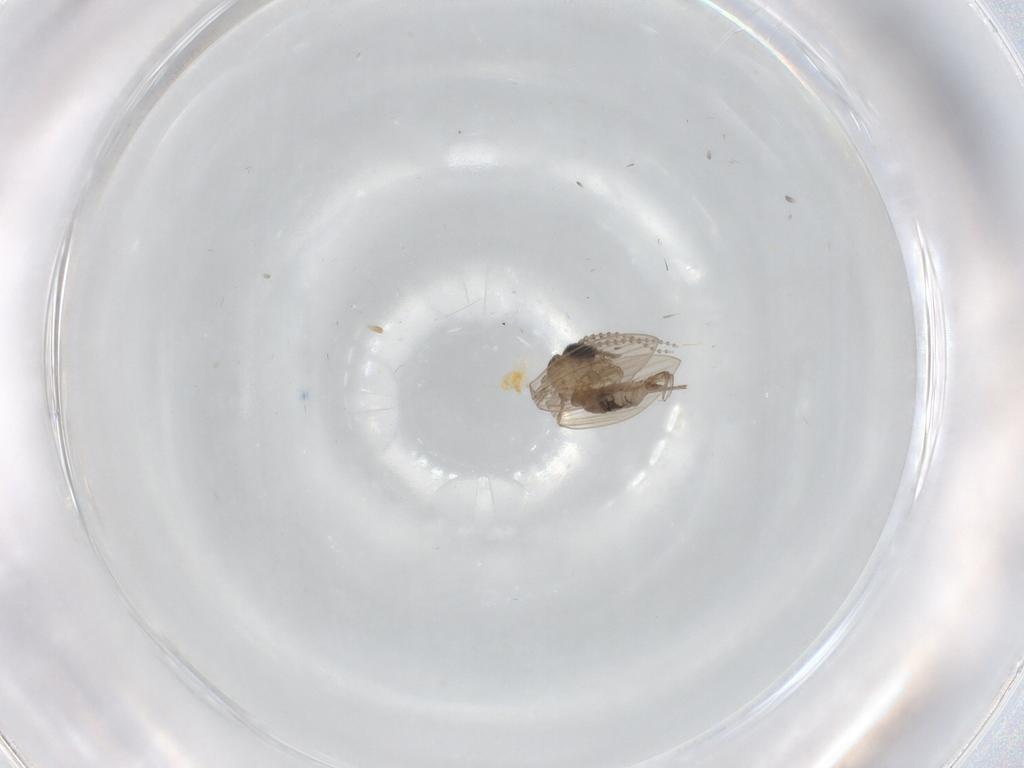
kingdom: Animalia
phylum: Arthropoda
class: Insecta
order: Diptera
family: Psychodidae
